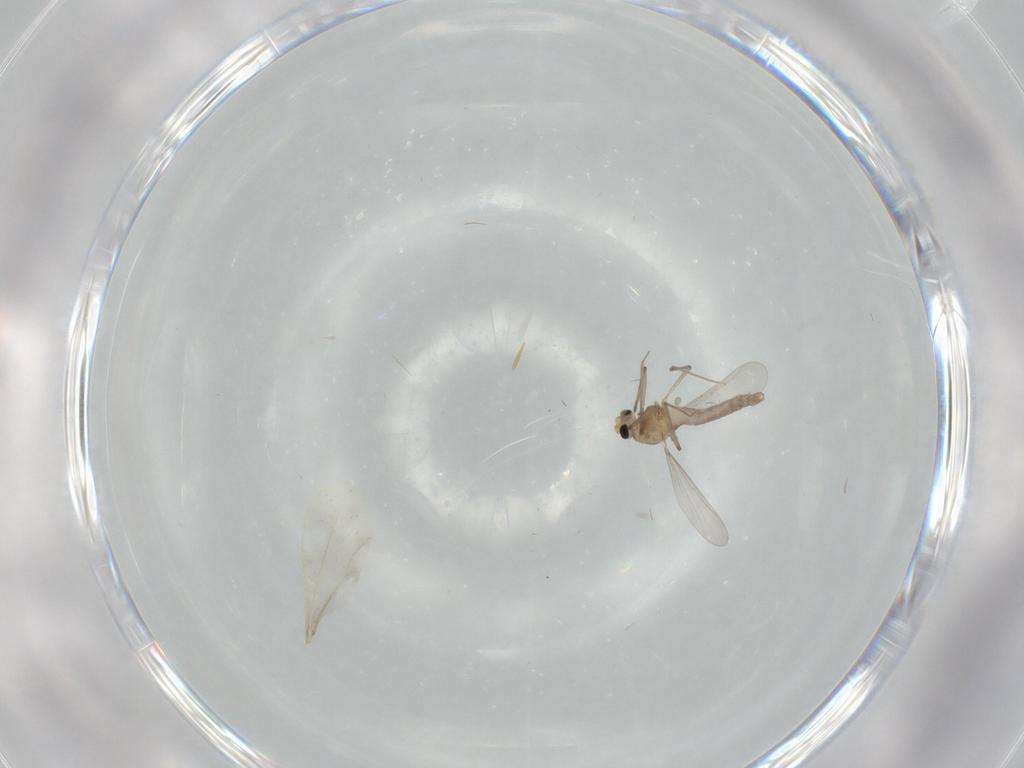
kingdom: Animalia
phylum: Arthropoda
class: Insecta
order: Diptera
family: Chironomidae
